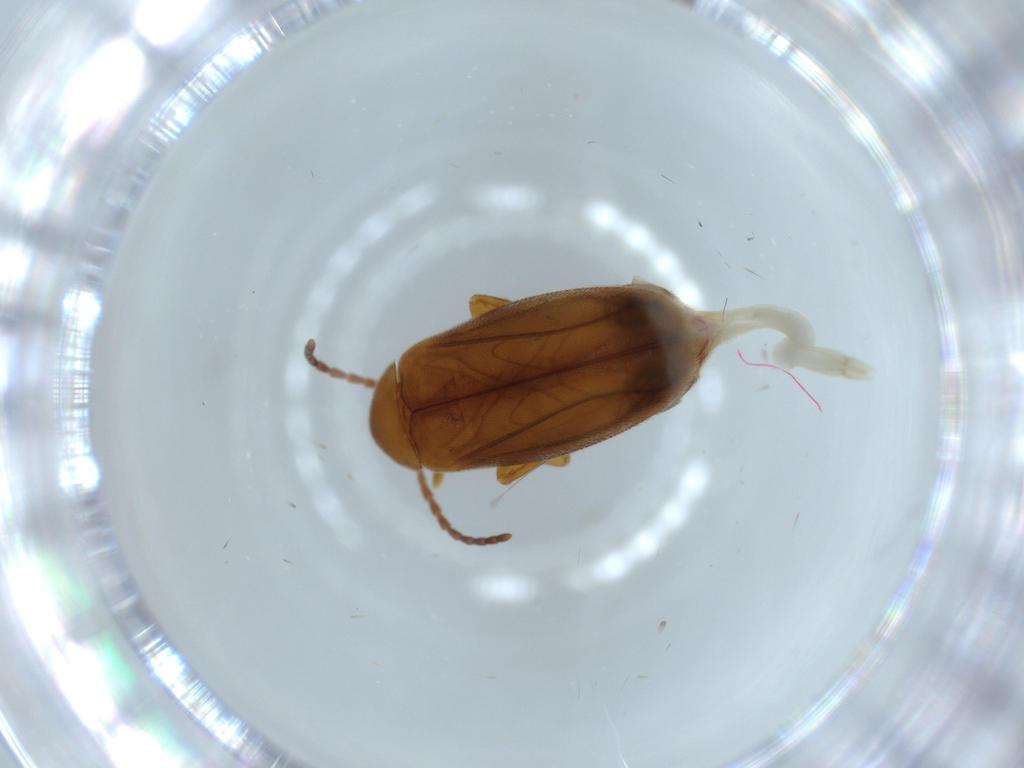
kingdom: Animalia
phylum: Arthropoda
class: Insecta
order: Coleoptera
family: Scraptiidae
